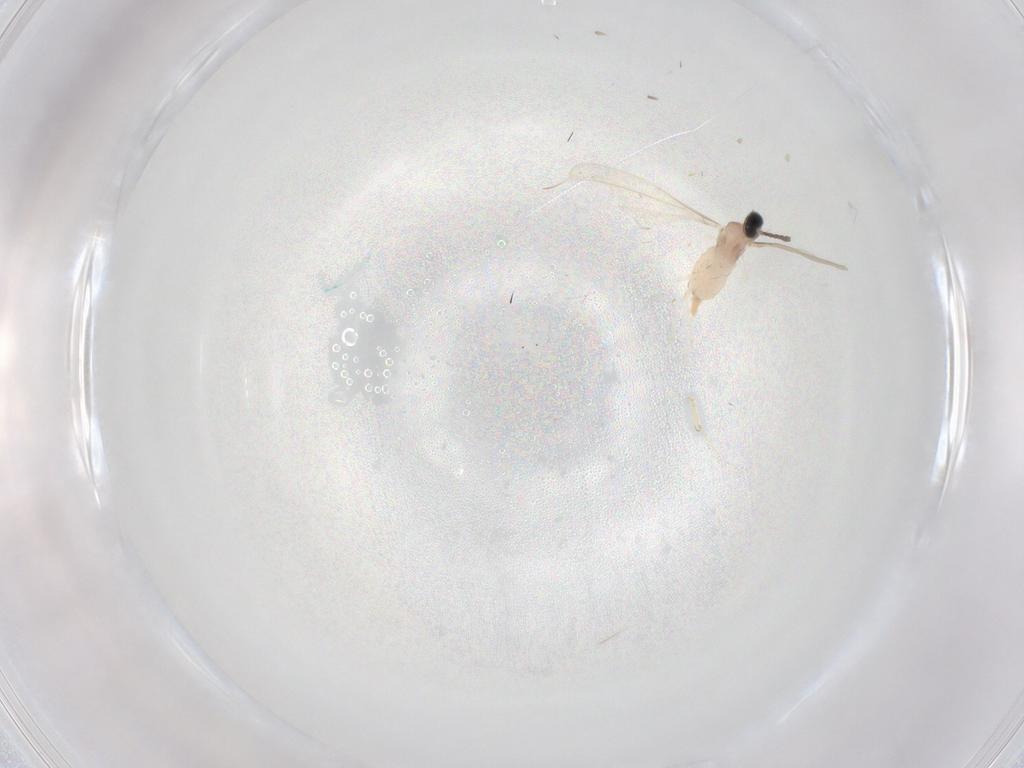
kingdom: Animalia
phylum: Arthropoda
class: Insecta
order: Diptera
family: Cecidomyiidae
